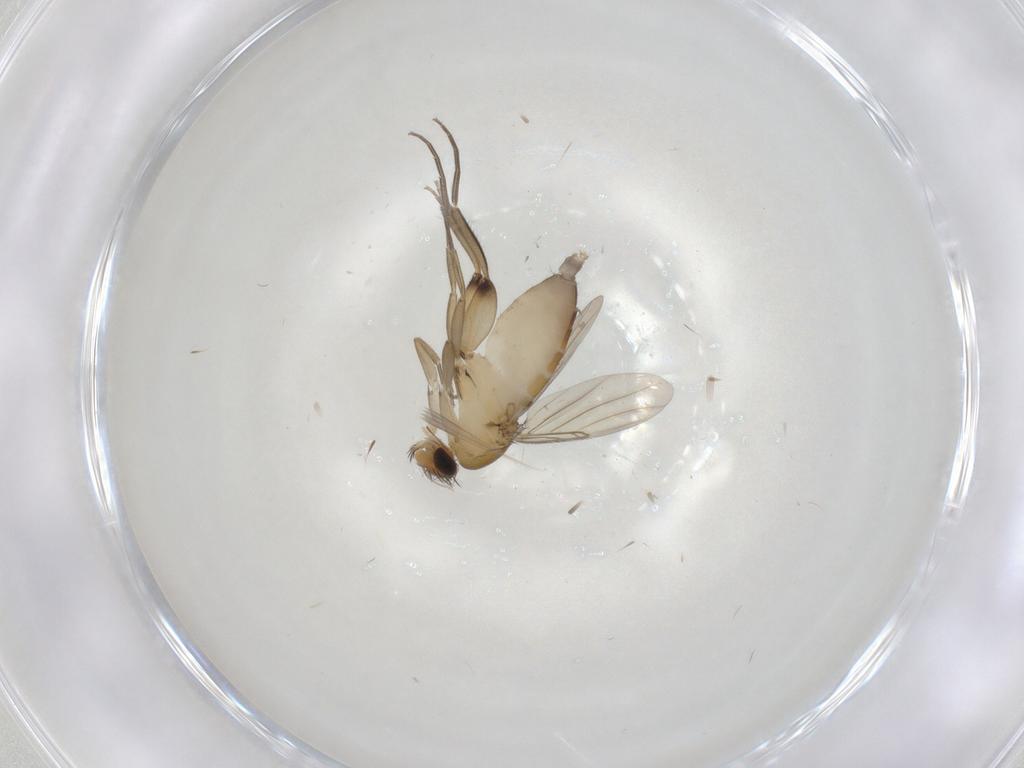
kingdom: Animalia
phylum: Arthropoda
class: Insecta
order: Diptera
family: Phoridae
